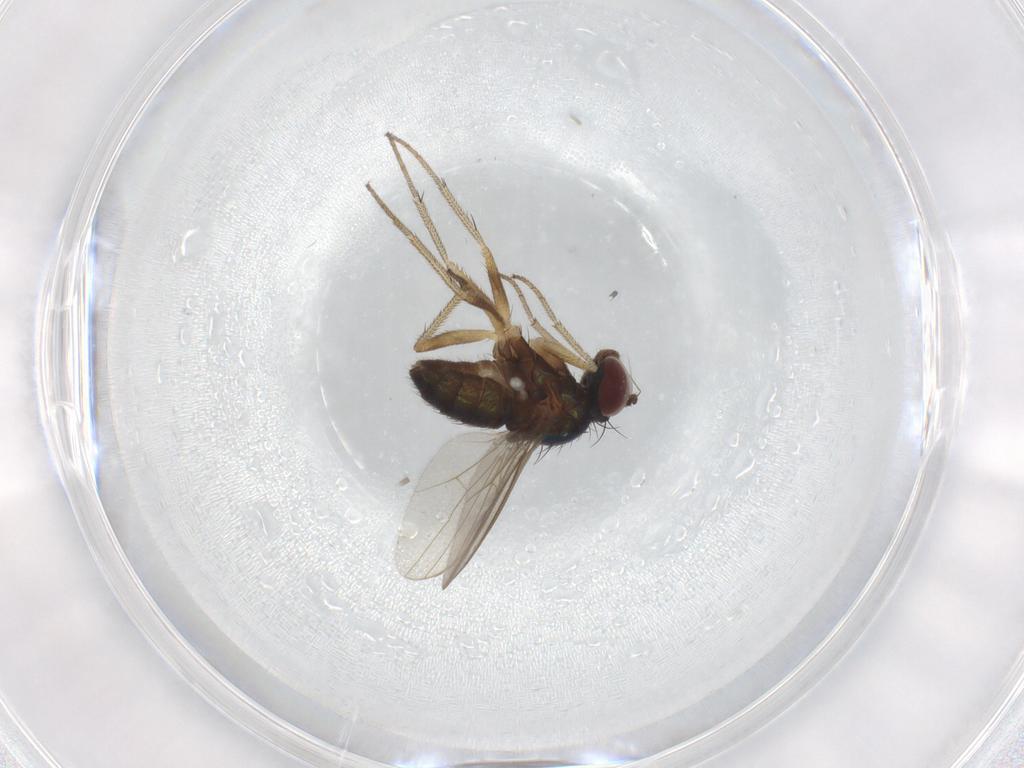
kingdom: Animalia
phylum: Arthropoda
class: Insecta
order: Diptera
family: Dolichopodidae
